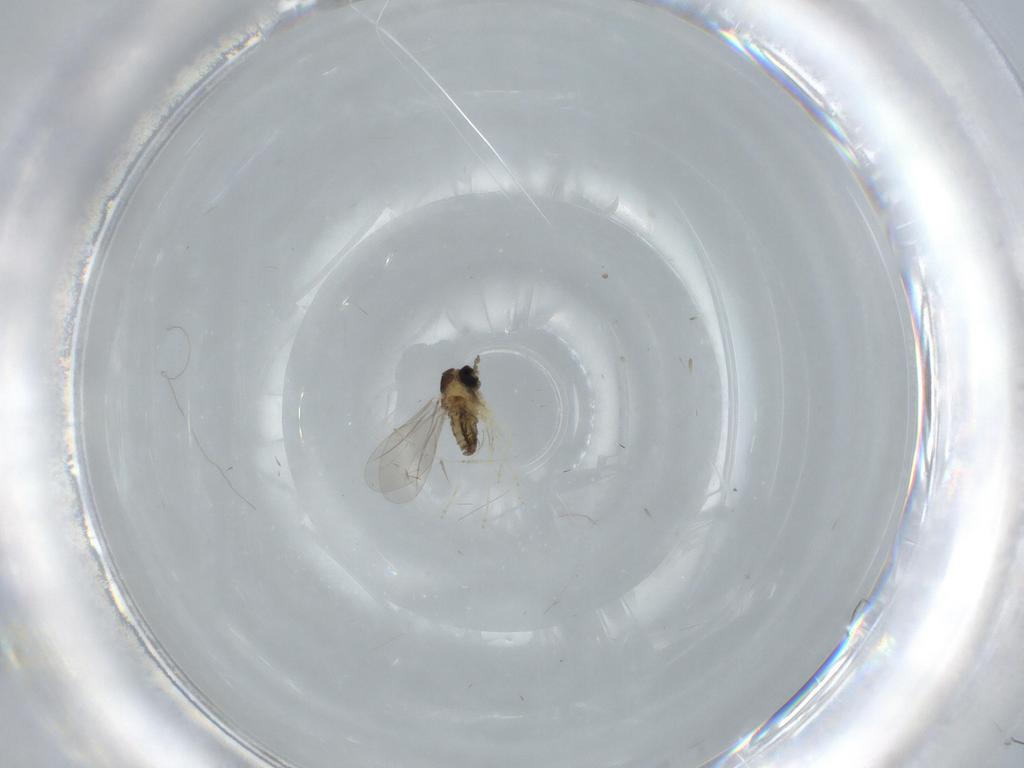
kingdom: Animalia
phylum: Arthropoda
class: Insecta
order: Diptera
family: Cecidomyiidae
